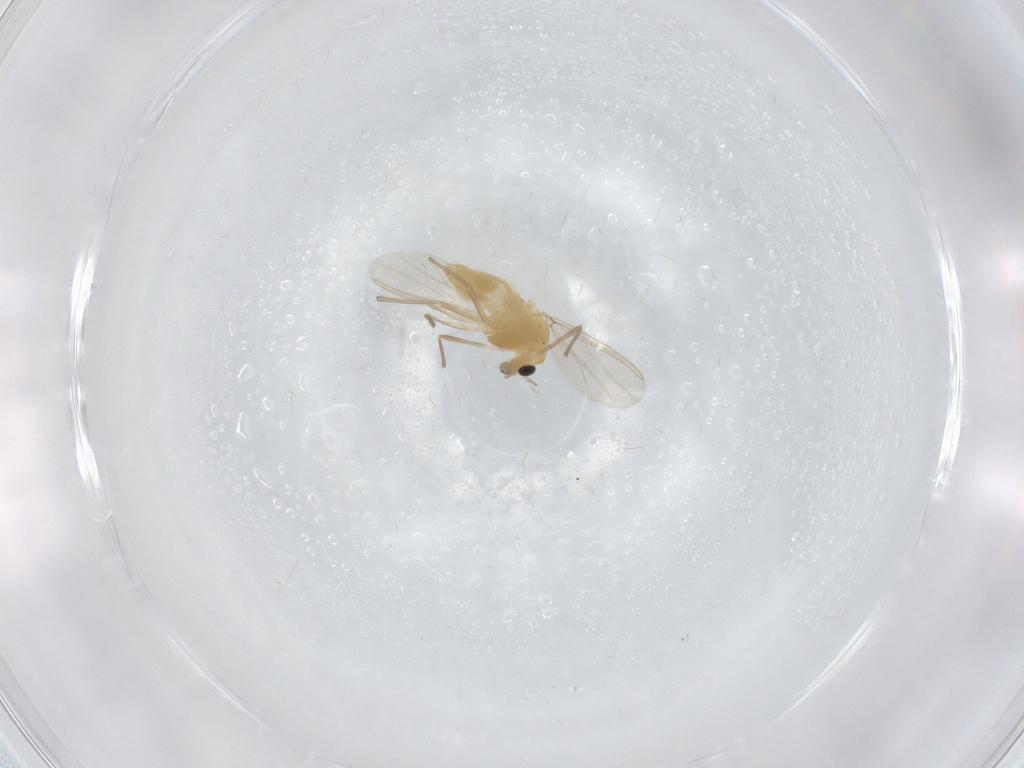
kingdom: Animalia
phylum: Arthropoda
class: Insecta
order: Diptera
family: Chironomidae
